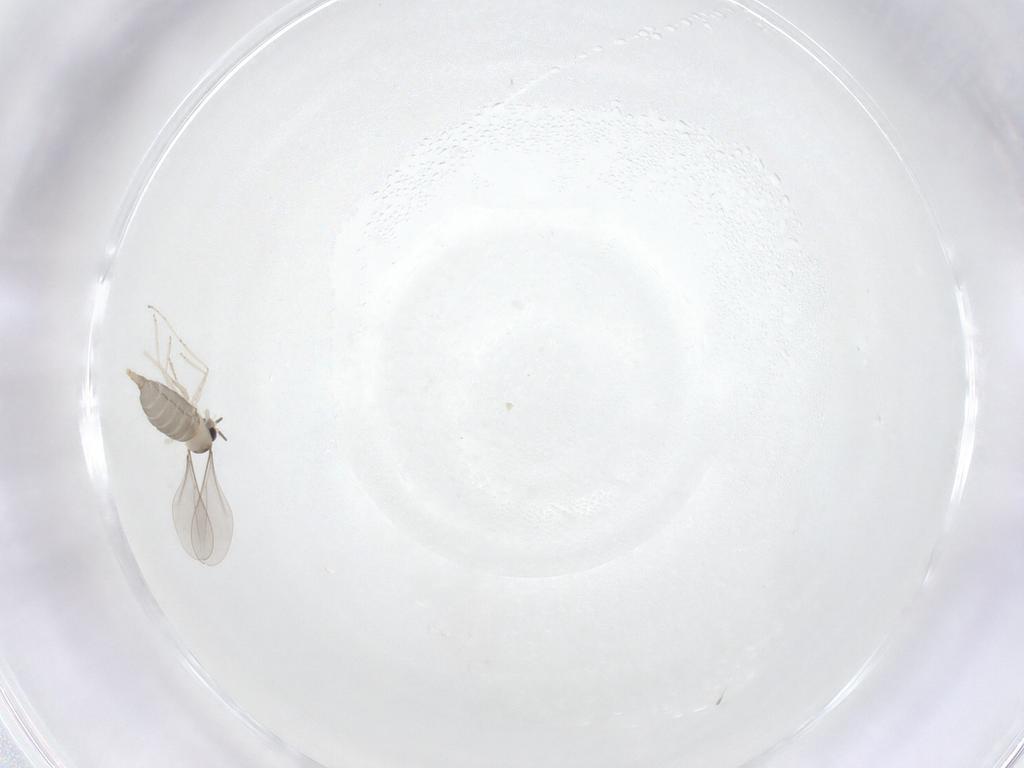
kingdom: Animalia
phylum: Arthropoda
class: Insecta
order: Diptera
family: Cecidomyiidae
